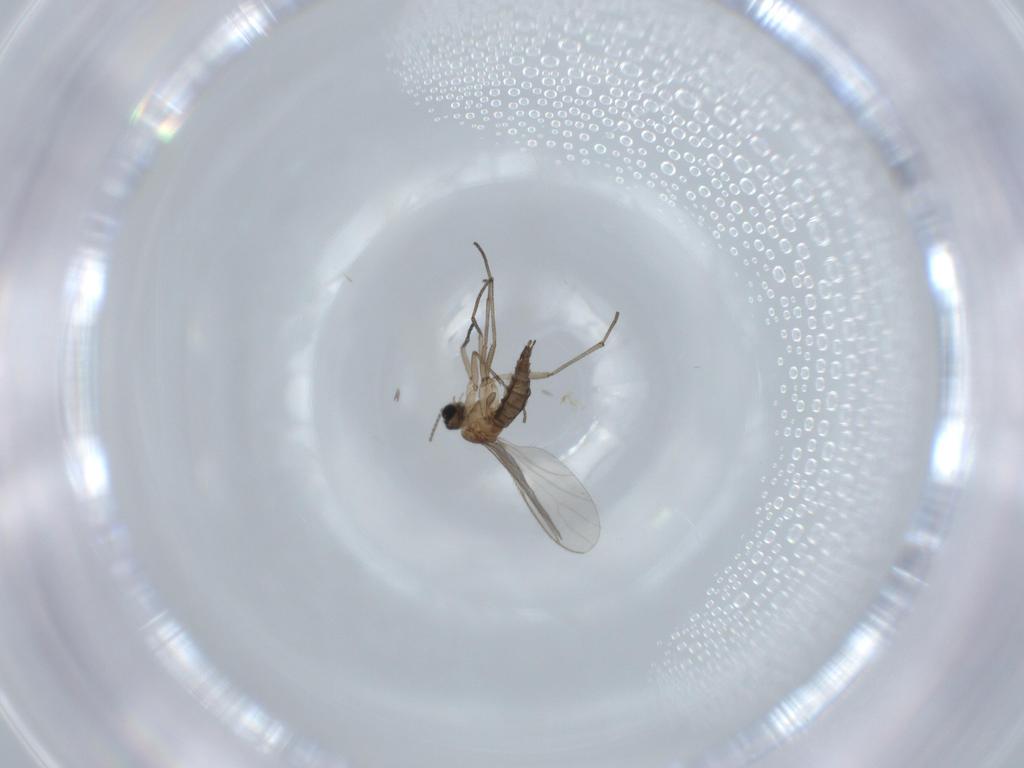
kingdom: Animalia
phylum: Arthropoda
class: Insecta
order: Diptera
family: Sciaridae
